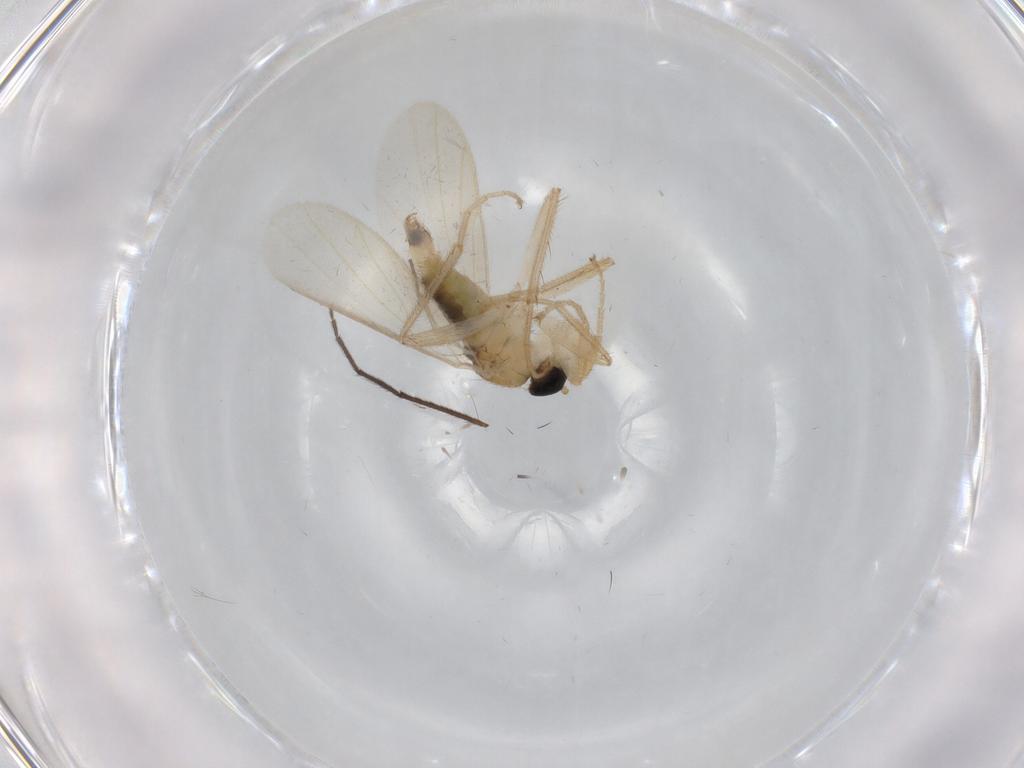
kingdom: Animalia
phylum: Arthropoda
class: Insecta
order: Diptera
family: Hybotidae
